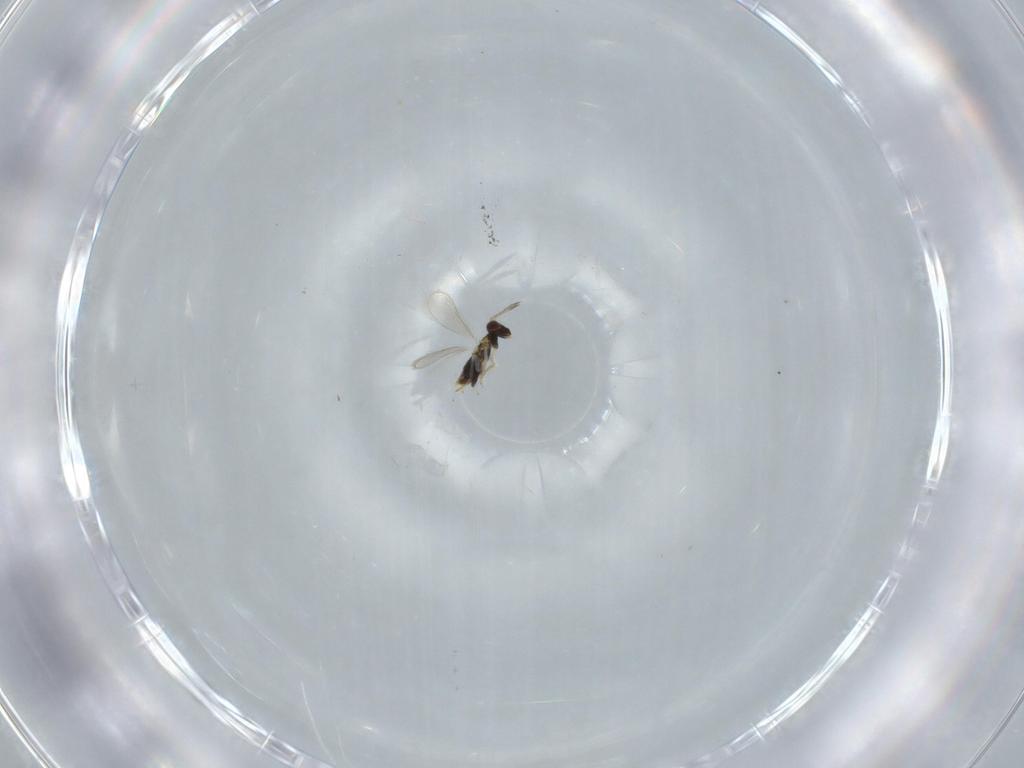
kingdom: Animalia
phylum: Arthropoda
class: Insecta
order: Hymenoptera
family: Aphelinidae
